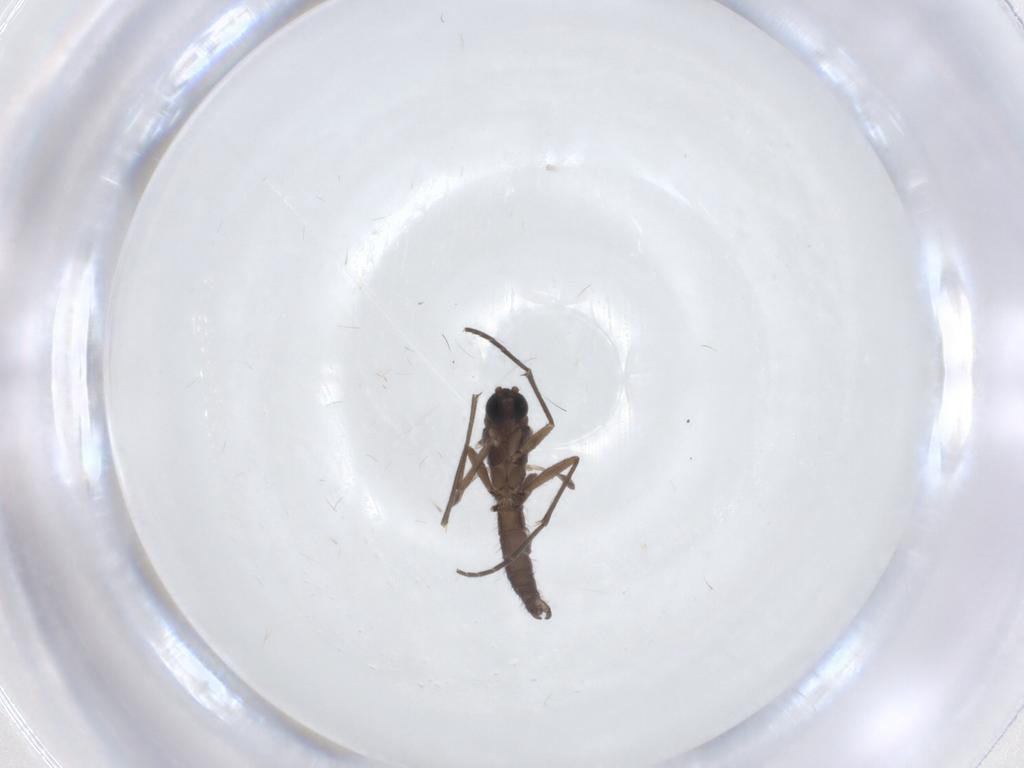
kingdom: Animalia
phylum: Arthropoda
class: Insecta
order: Diptera
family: Sciaridae
